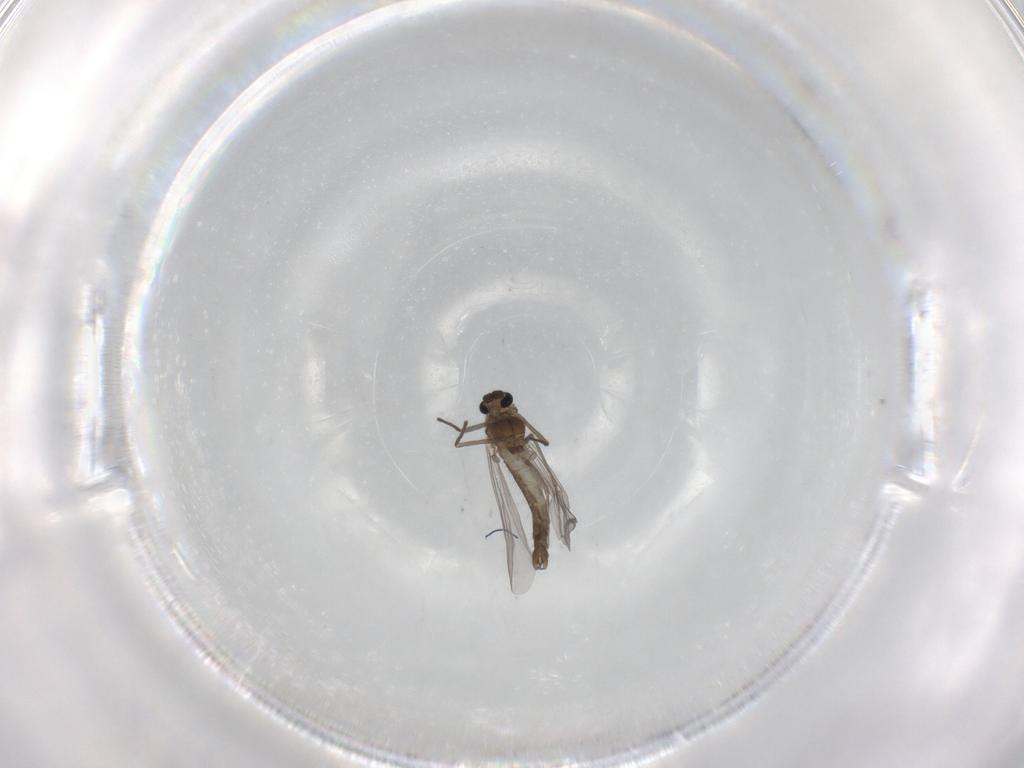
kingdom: Animalia
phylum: Arthropoda
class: Insecta
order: Diptera
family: Chironomidae
